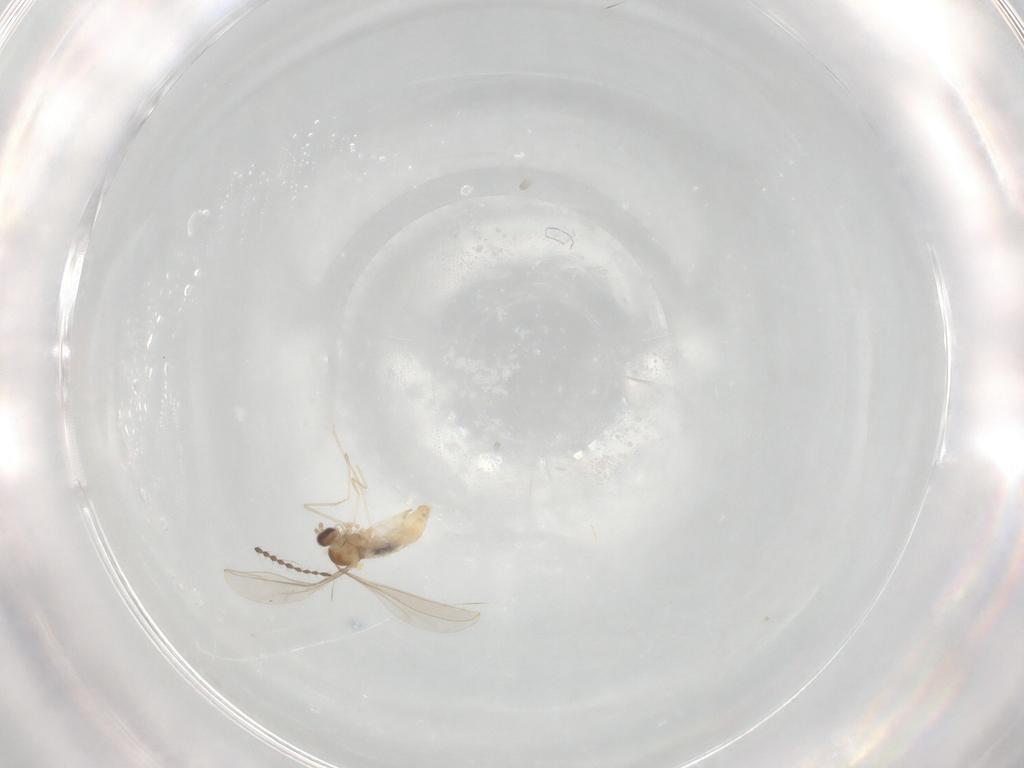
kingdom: Animalia
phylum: Arthropoda
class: Insecta
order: Diptera
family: Cecidomyiidae
